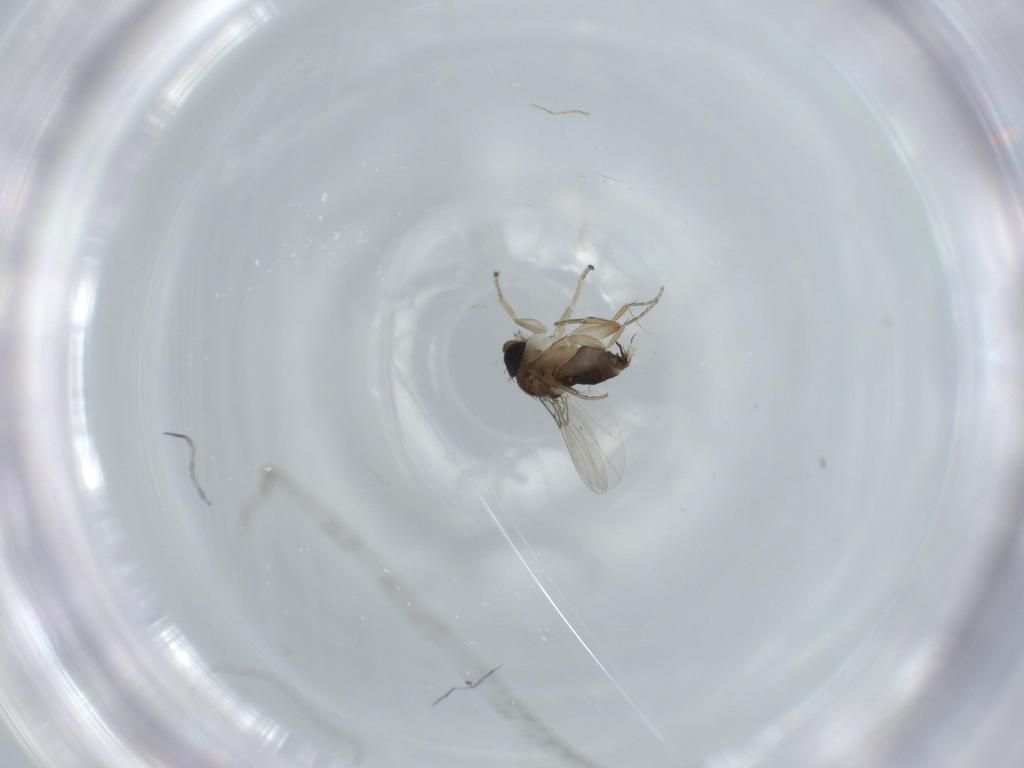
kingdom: Animalia
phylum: Arthropoda
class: Insecta
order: Diptera
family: Phoridae
